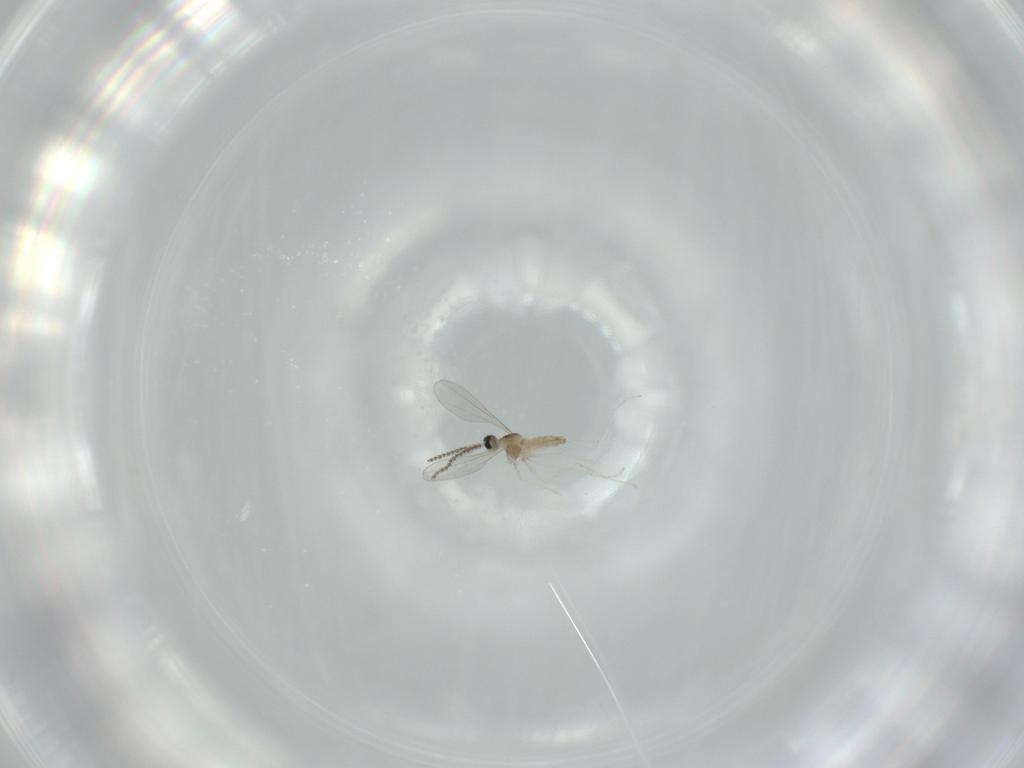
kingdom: Animalia
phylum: Arthropoda
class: Insecta
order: Diptera
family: Cecidomyiidae
